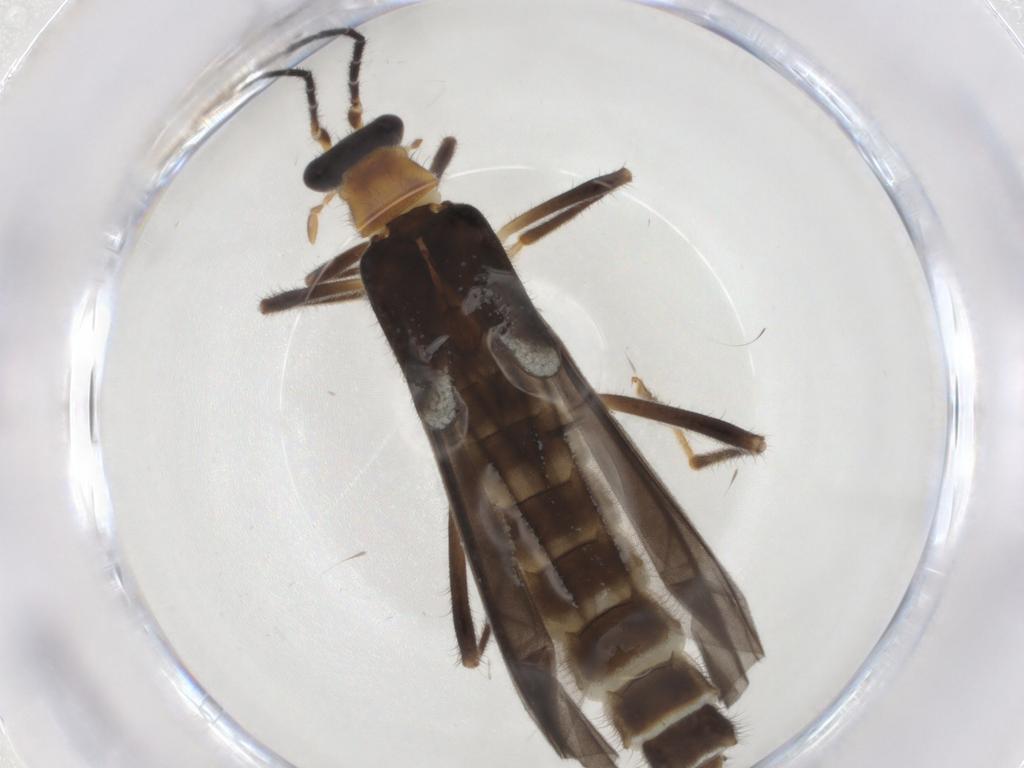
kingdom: Animalia
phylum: Arthropoda
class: Insecta
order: Coleoptera
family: Cantharidae
